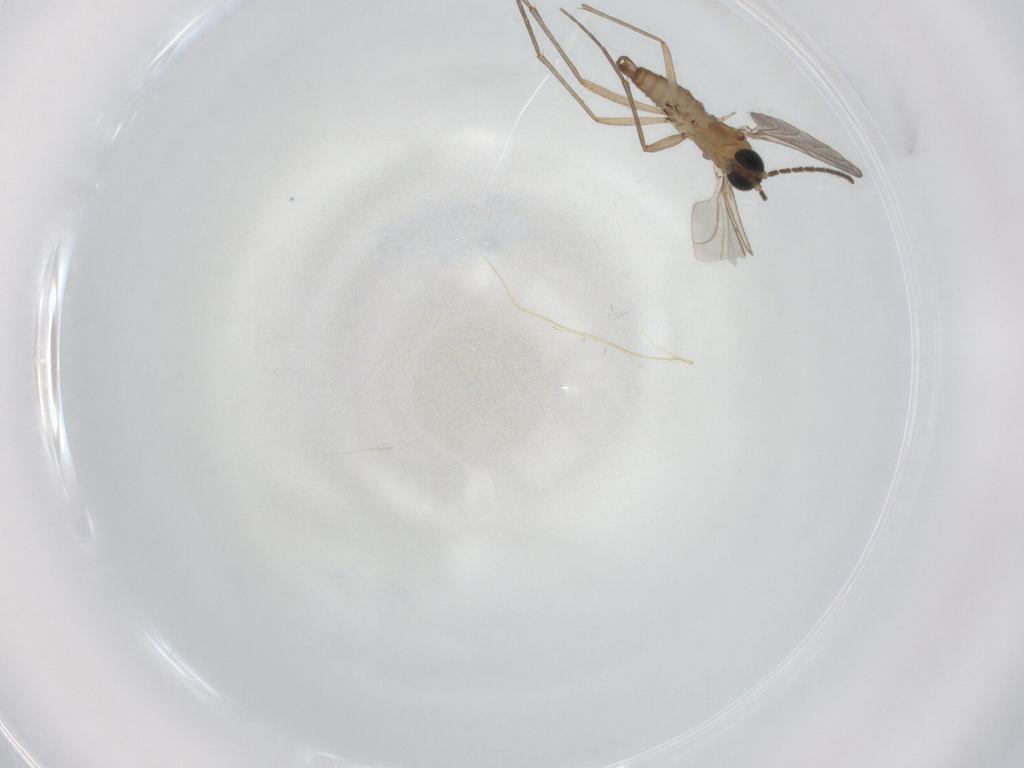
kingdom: Animalia
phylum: Arthropoda
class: Insecta
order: Diptera
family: Sciaridae
